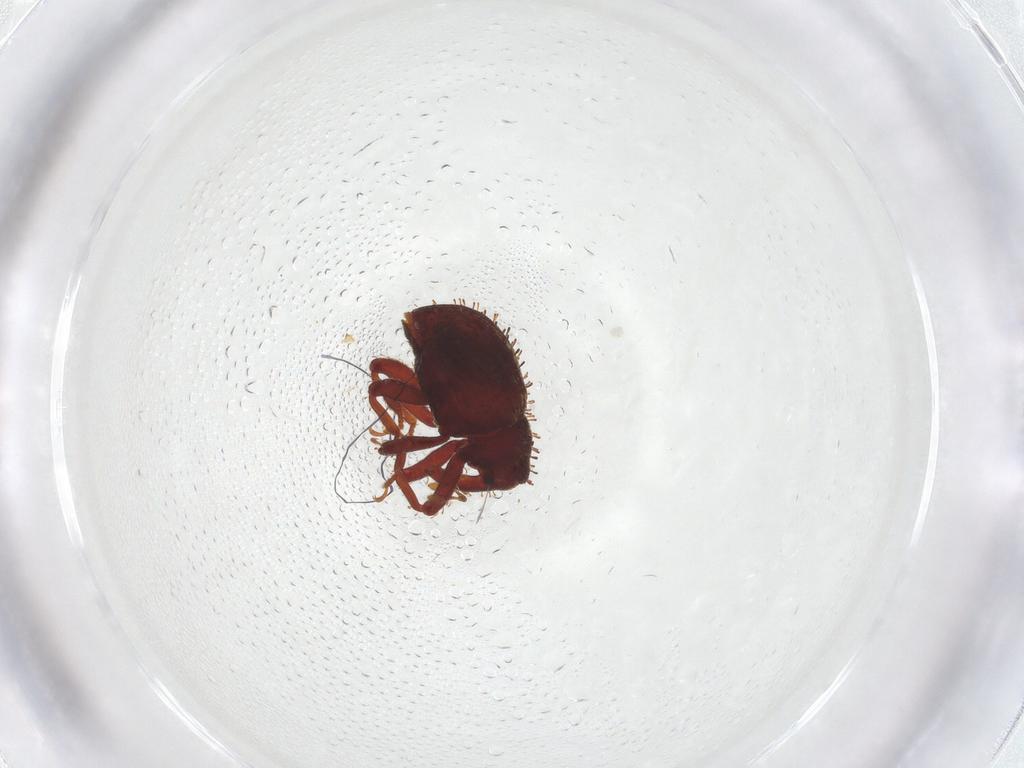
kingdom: Animalia
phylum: Arthropoda
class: Insecta
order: Coleoptera
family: Curculionidae
